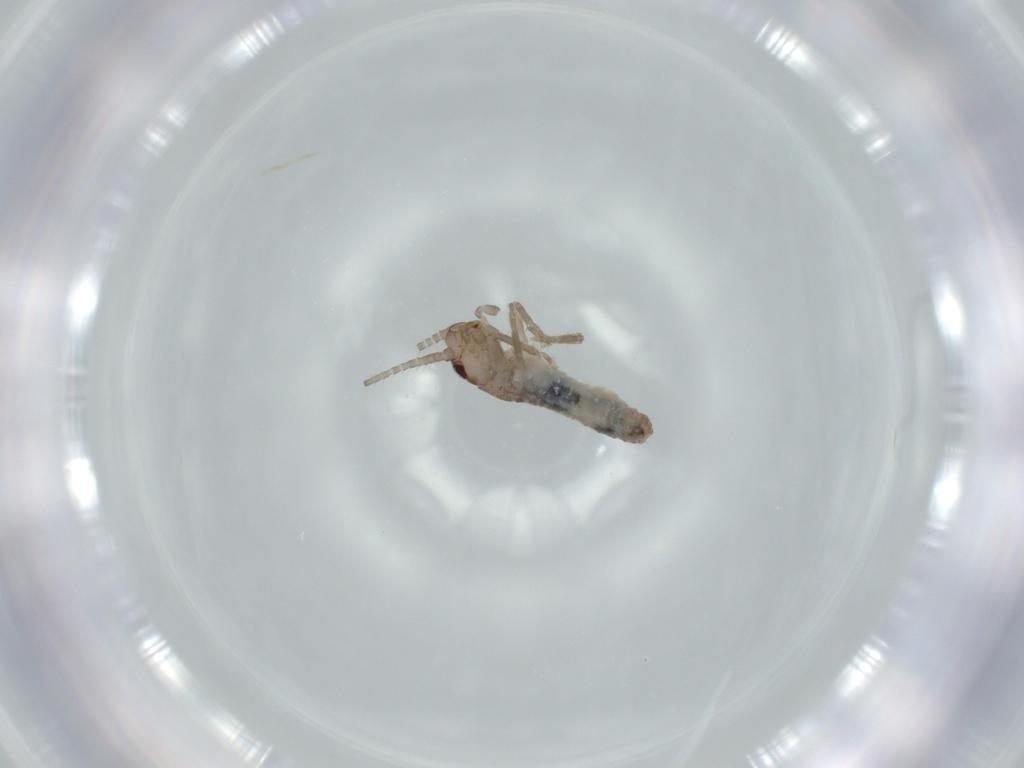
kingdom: Animalia
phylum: Arthropoda
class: Insecta
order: Orthoptera
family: Mogoplistidae
